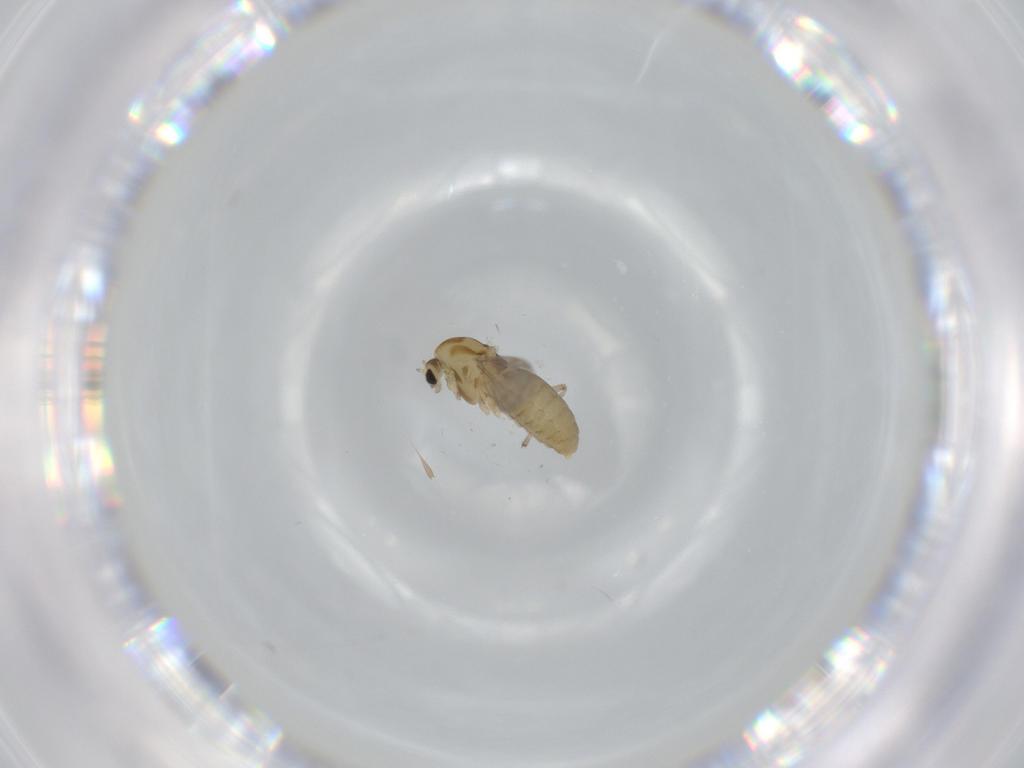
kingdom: Animalia
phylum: Arthropoda
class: Insecta
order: Diptera
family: Chironomidae
